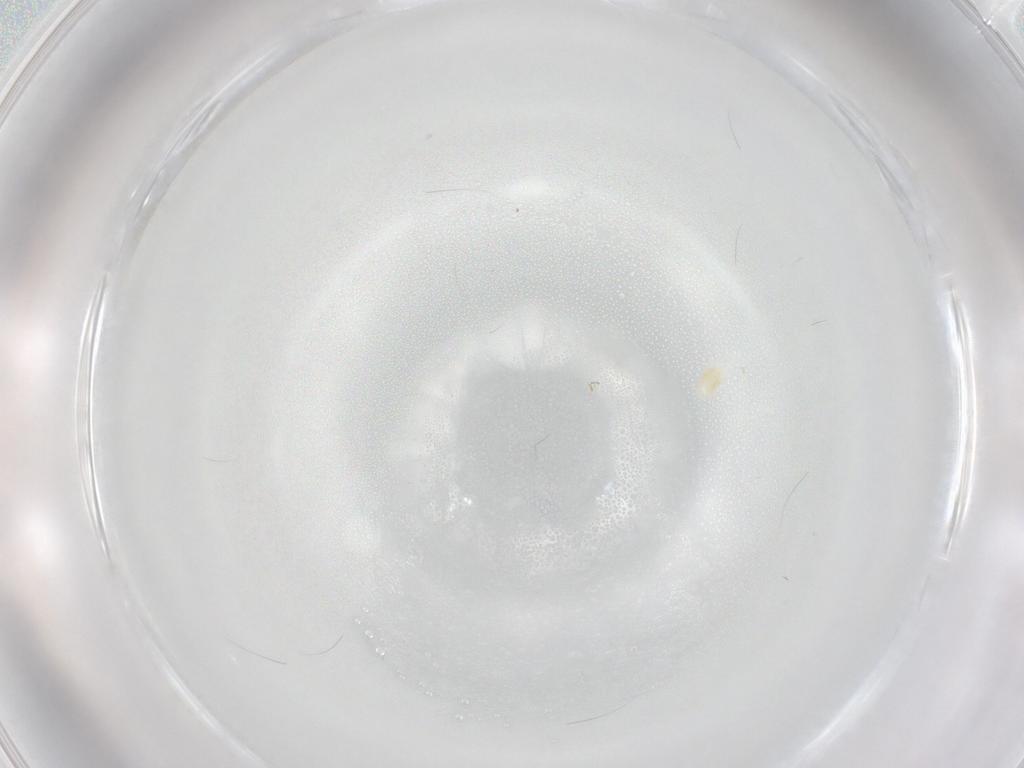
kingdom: Animalia
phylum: Arthropoda
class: Arachnida
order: Trombidiformes
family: Eupodidae
